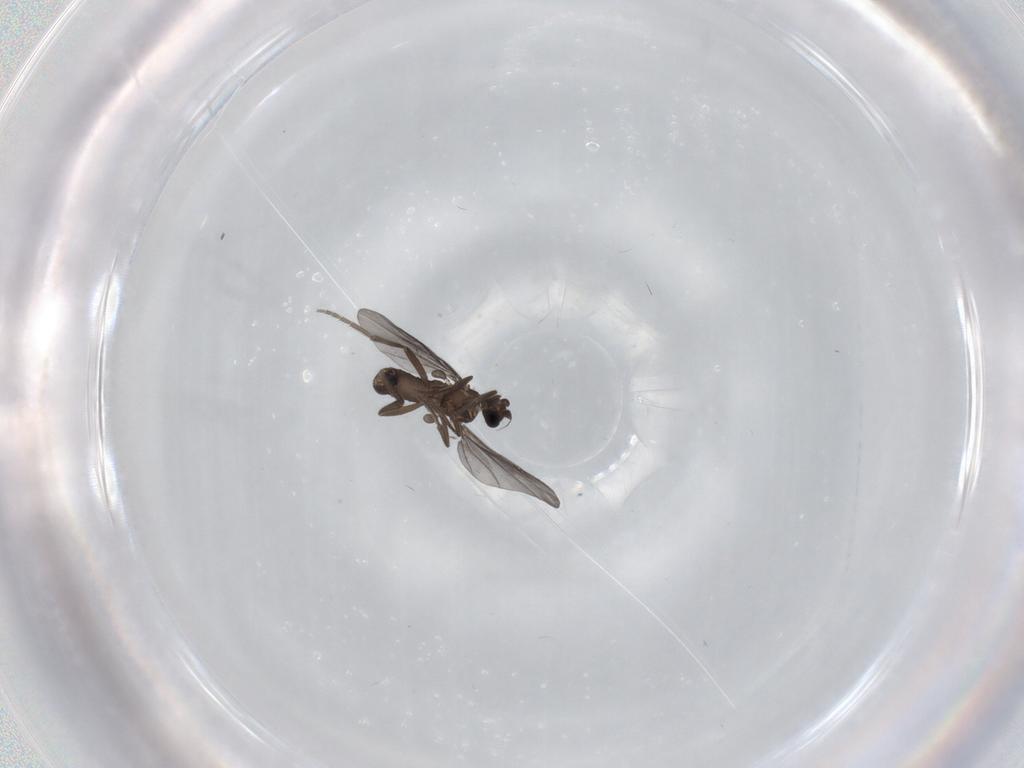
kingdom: Animalia
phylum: Arthropoda
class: Insecta
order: Diptera
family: Phoridae
